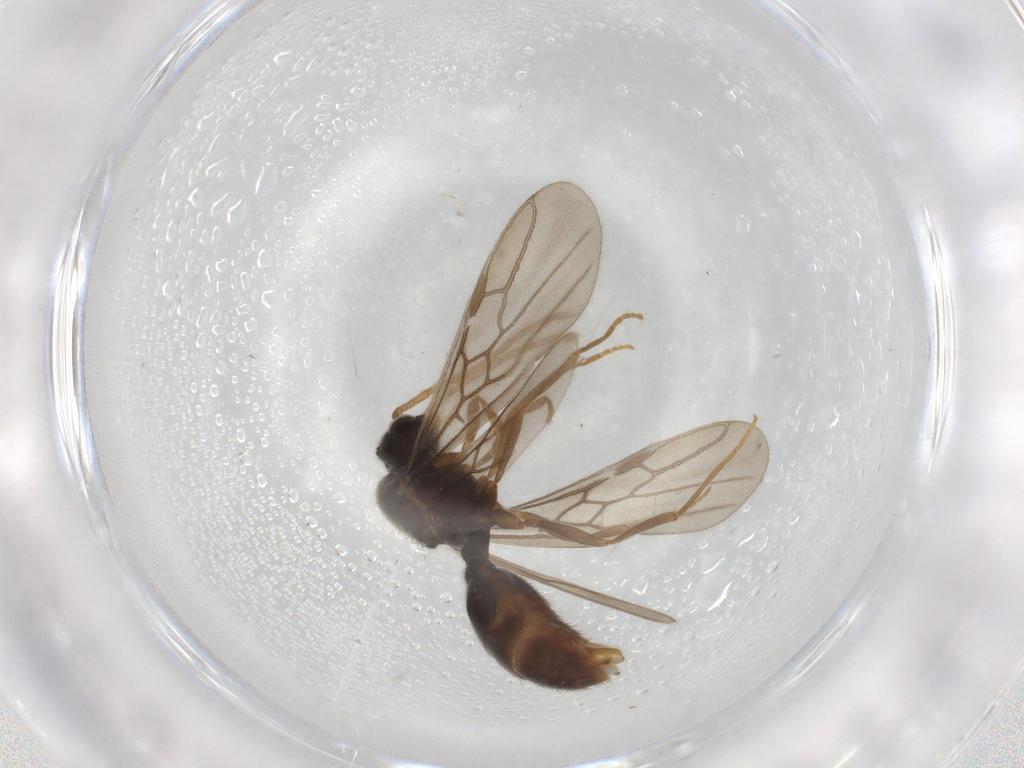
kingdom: Animalia
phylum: Arthropoda
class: Insecta
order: Hymenoptera
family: Formicidae
